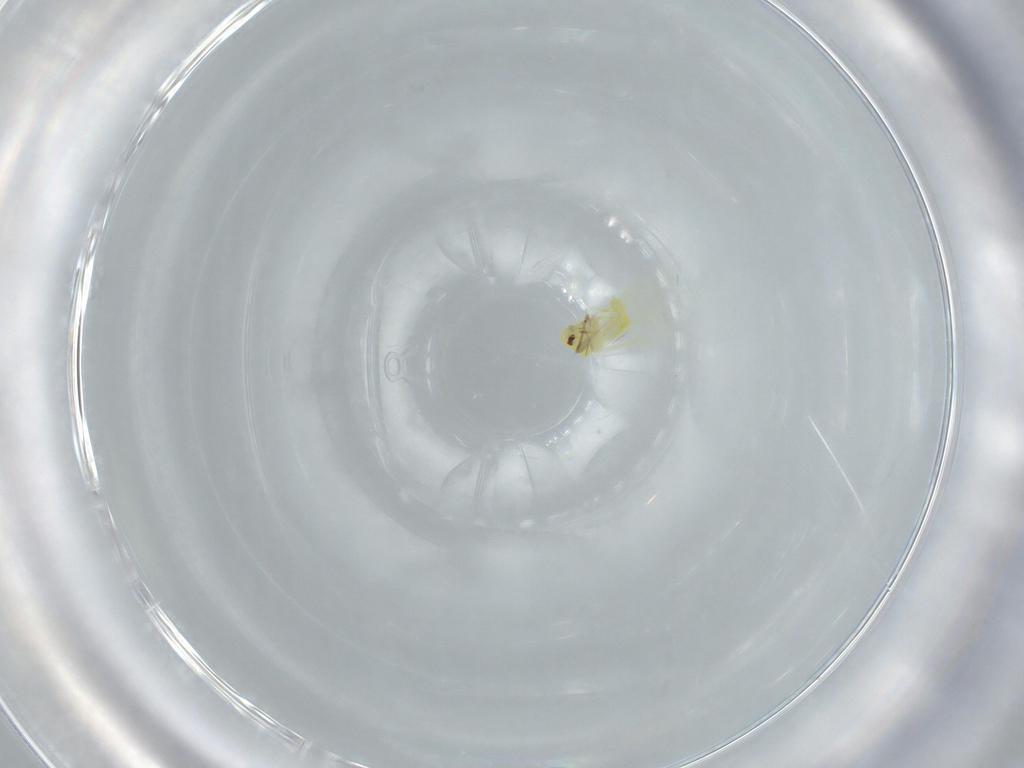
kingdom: Animalia
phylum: Arthropoda
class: Insecta
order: Hemiptera
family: Aleyrodidae
